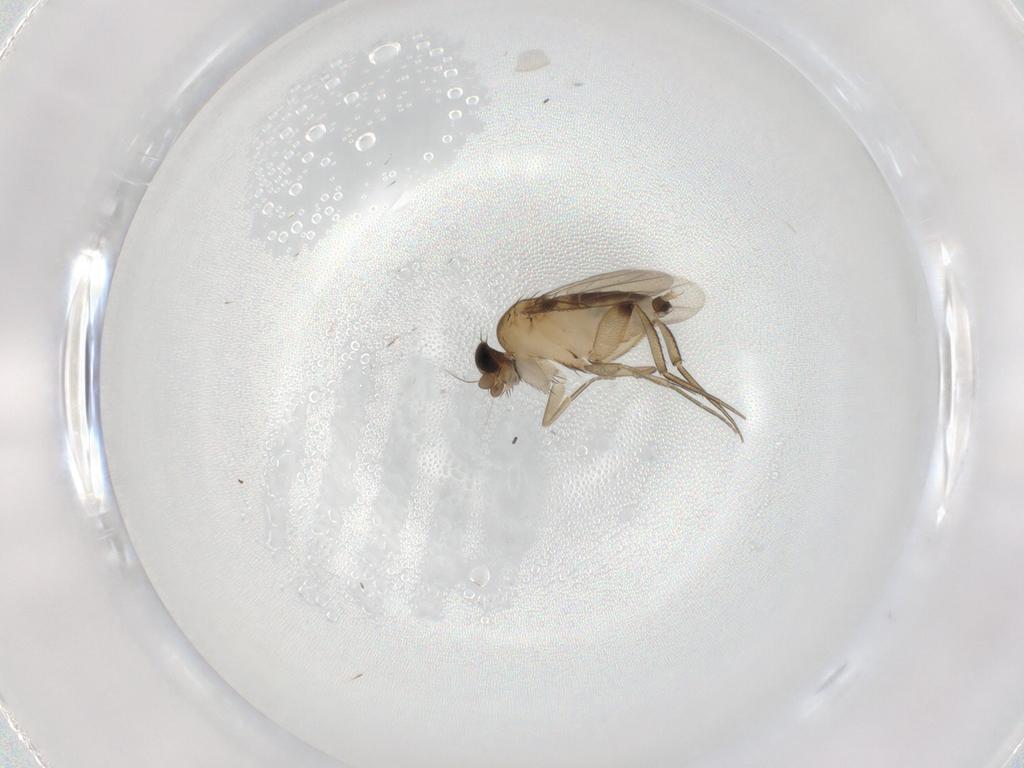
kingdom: Animalia
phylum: Arthropoda
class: Insecta
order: Diptera
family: Phoridae
